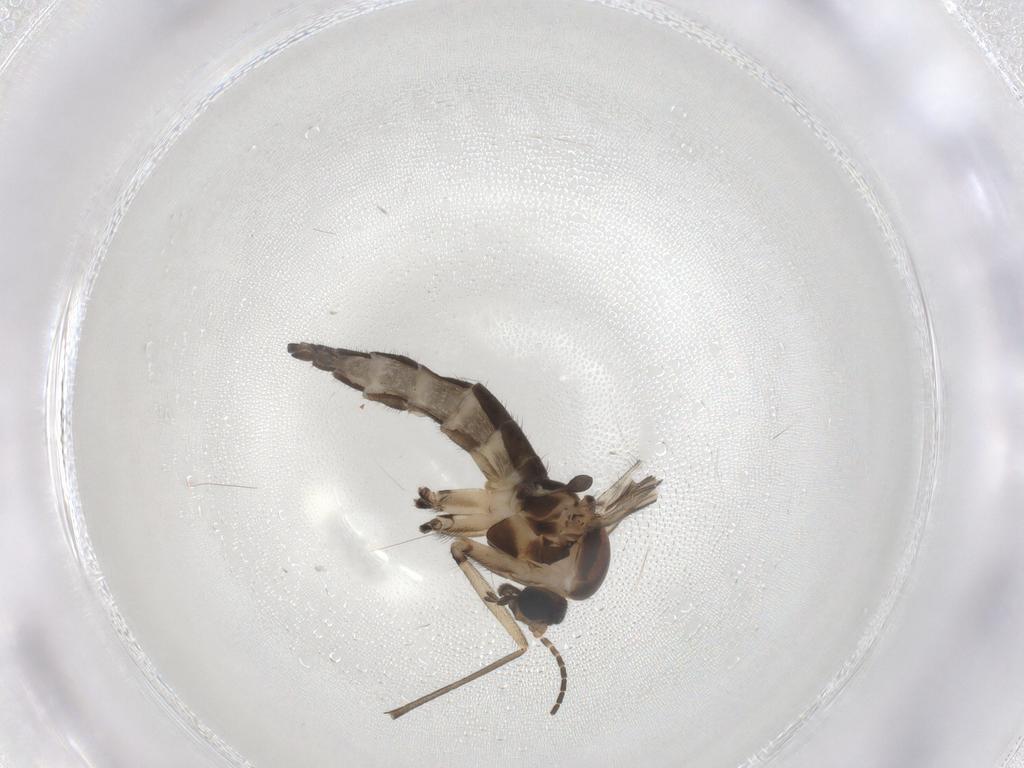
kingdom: Animalia
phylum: Arthropoda
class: Insecta
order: Diptera
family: Sciaridae
